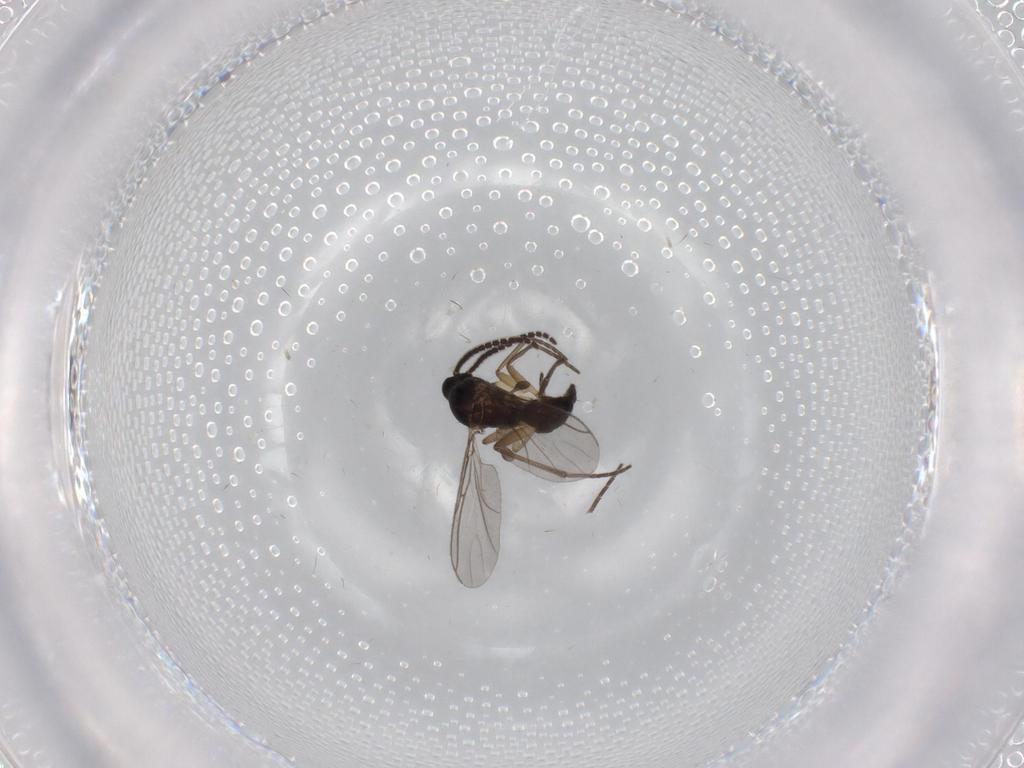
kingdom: Animalia
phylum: Arthropoda
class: Insecta
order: Diptera
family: Sciaridae
